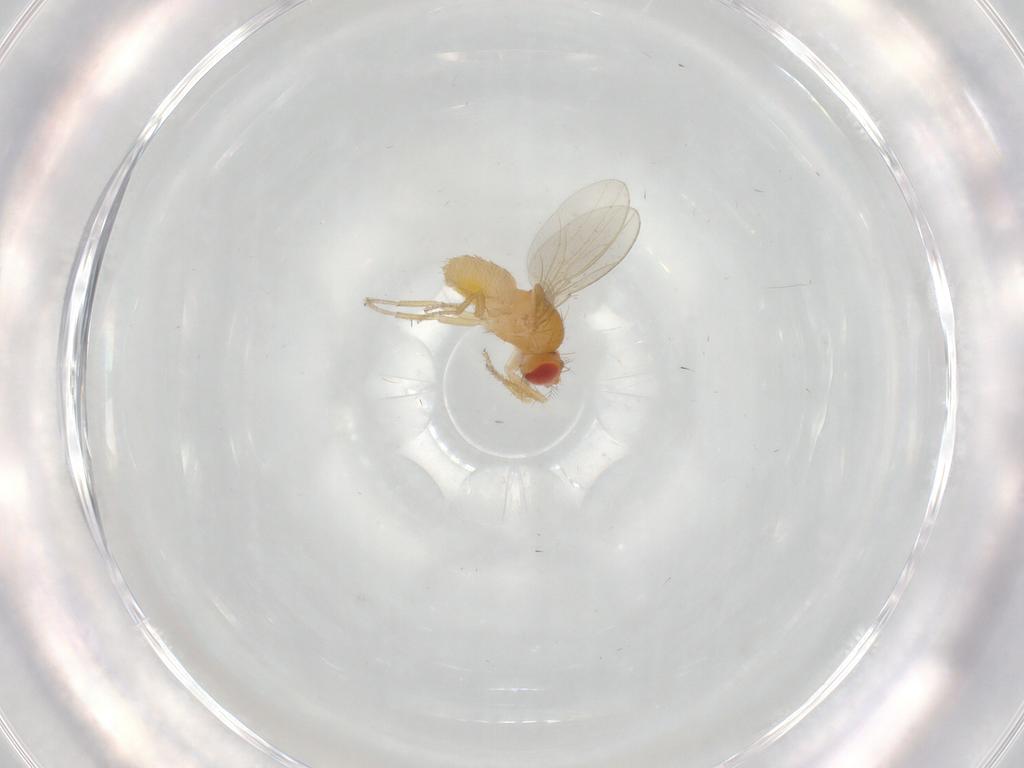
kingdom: Animalia
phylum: Arthropoda
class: Insecta
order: Diptera
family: Drosophilidae
